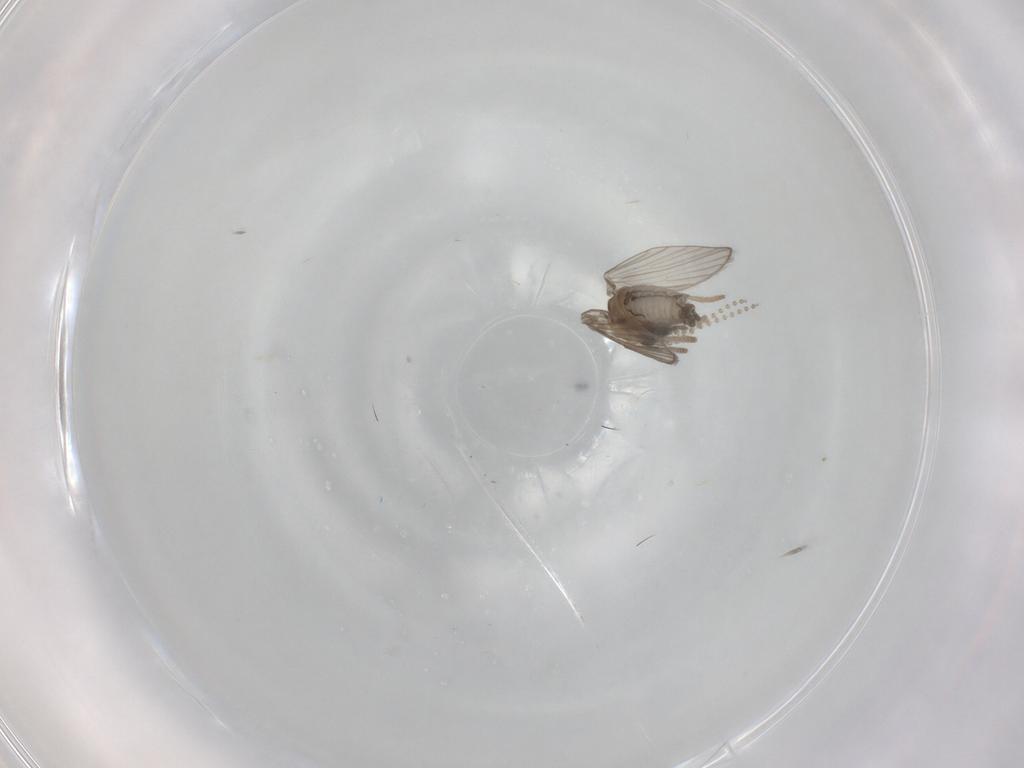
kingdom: Animalia
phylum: Arthropoda
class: Insecta
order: Diptera
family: Psychodidae
